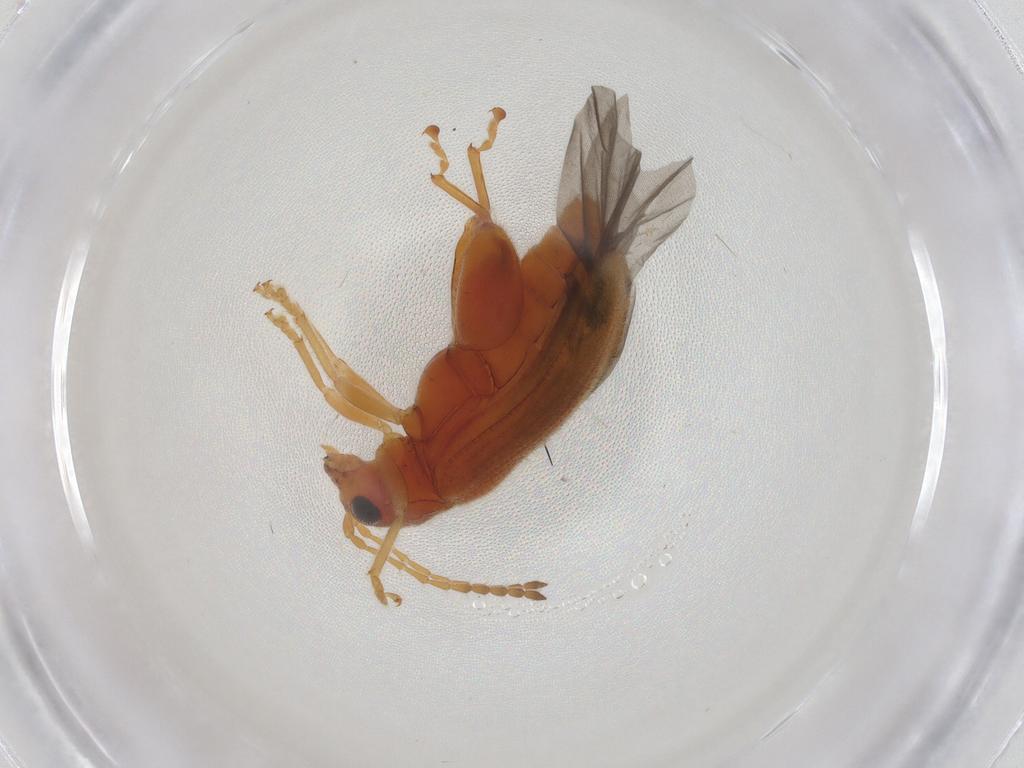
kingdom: Animalia
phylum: Arthropoda
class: Insecta
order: Coleoptera
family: Chrysomelidae
